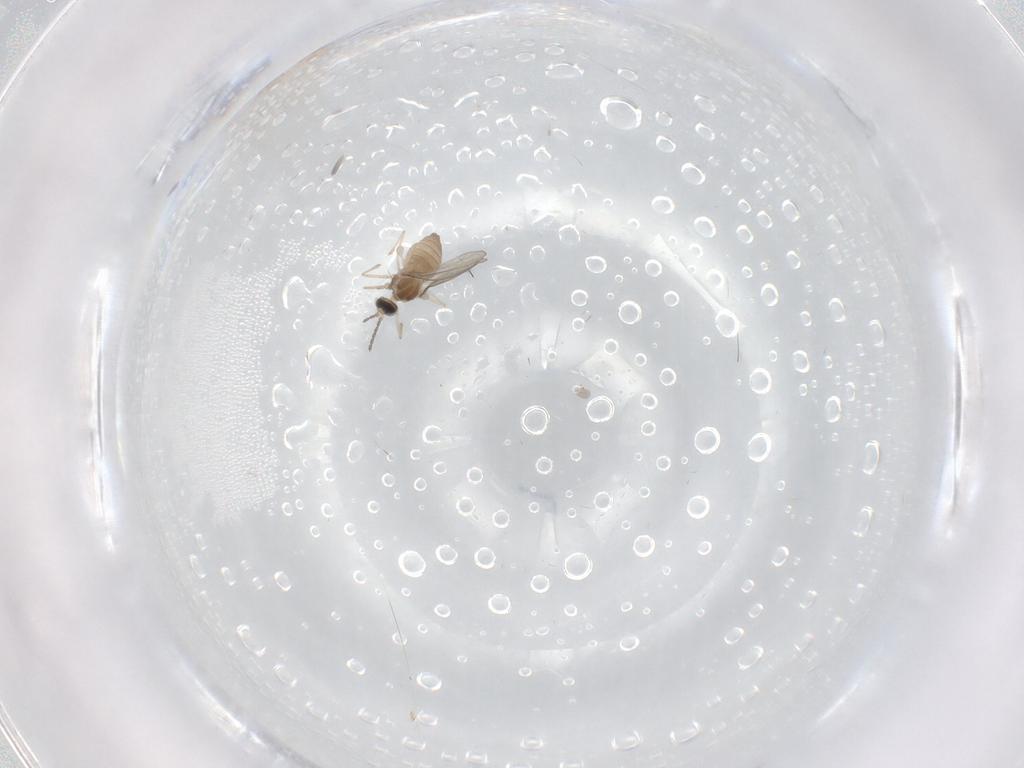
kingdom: Animalia
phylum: Arthropoda
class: Insecta
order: Diptera
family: Cecidomyiidae
